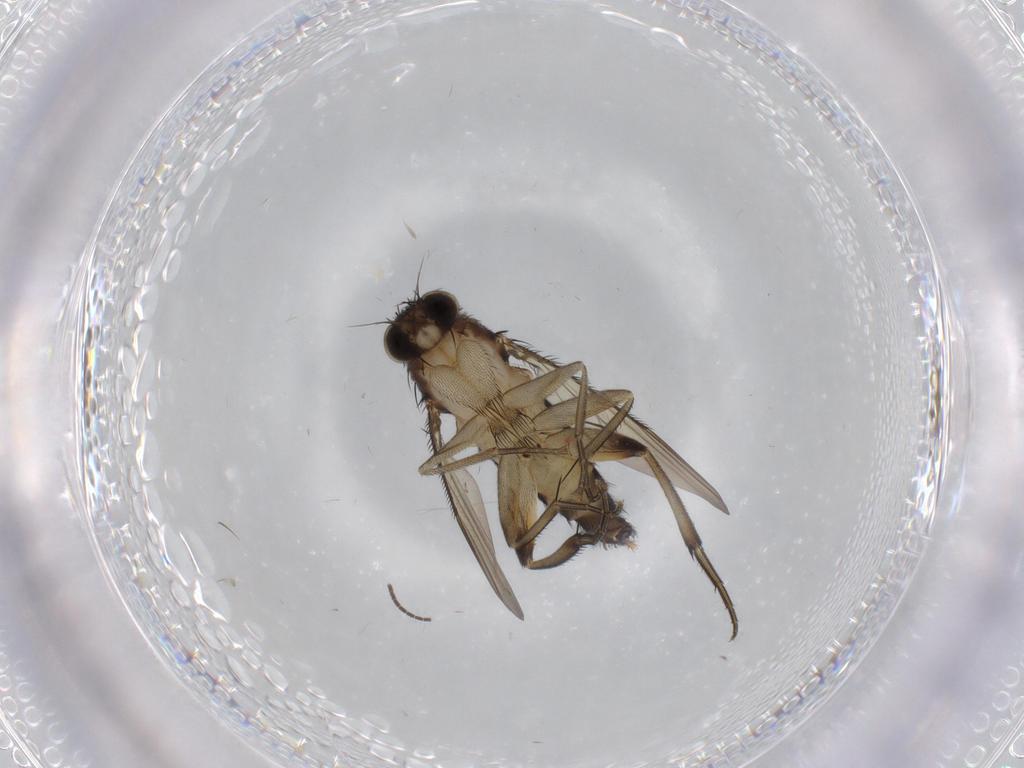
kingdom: Animalia
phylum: Arthropoda
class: Insecta
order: Diptera
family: Phoridae
